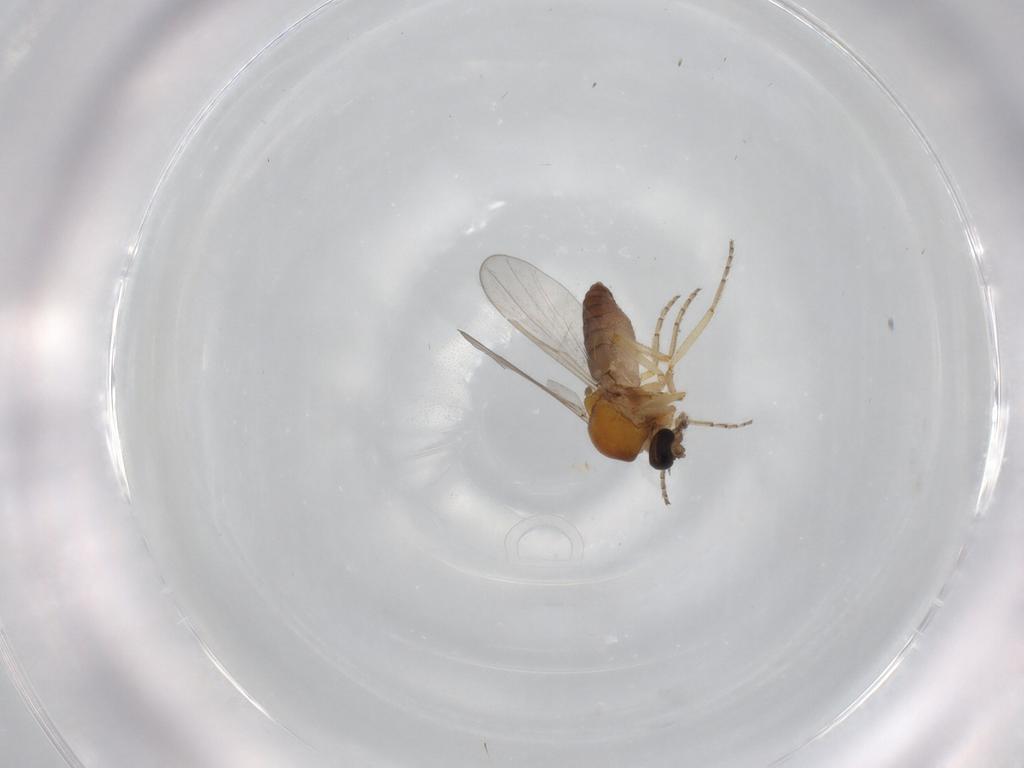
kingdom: Animalia
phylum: Arthropoda
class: Insecta
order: Diptera
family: Ceratopogonidae
